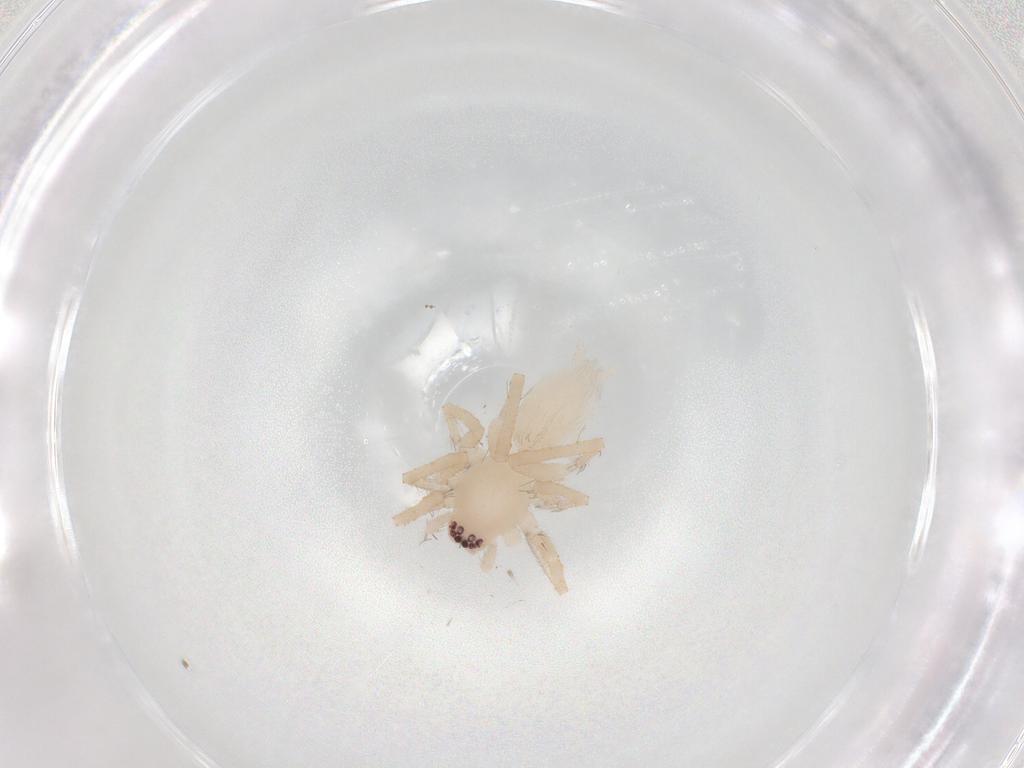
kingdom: Animalia
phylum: Arthropoda
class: Arachnida
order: Araneae
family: Clubionidae
